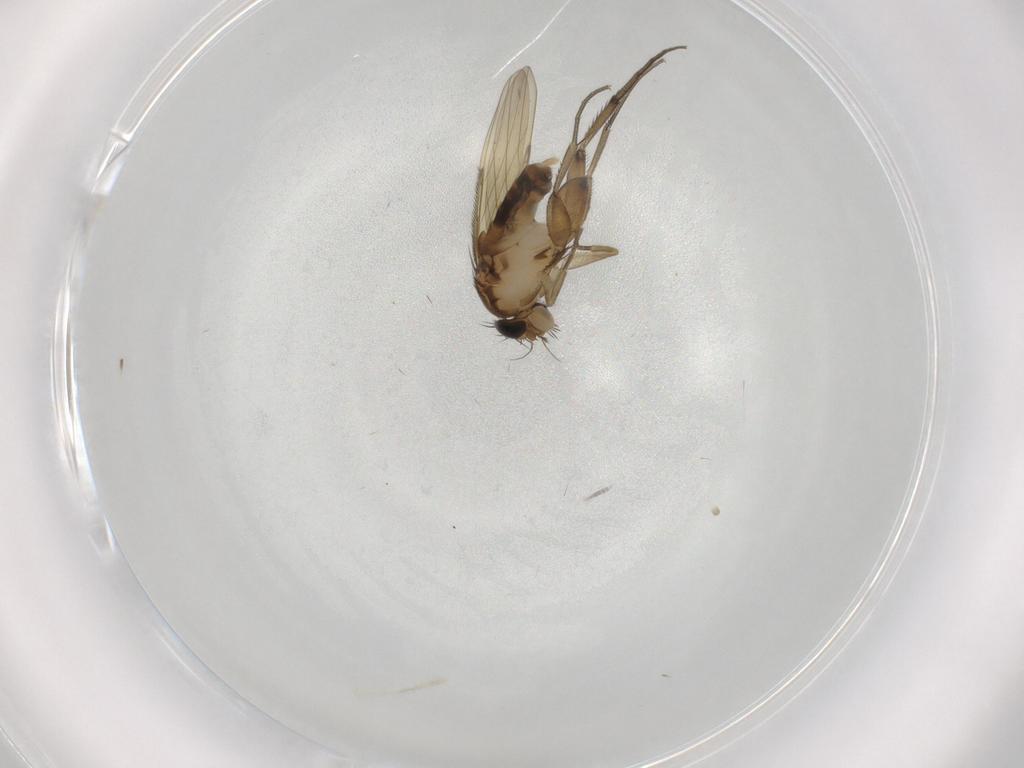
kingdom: Animalia
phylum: Arthropoda
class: Insecta
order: Diptera
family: Phoridae
